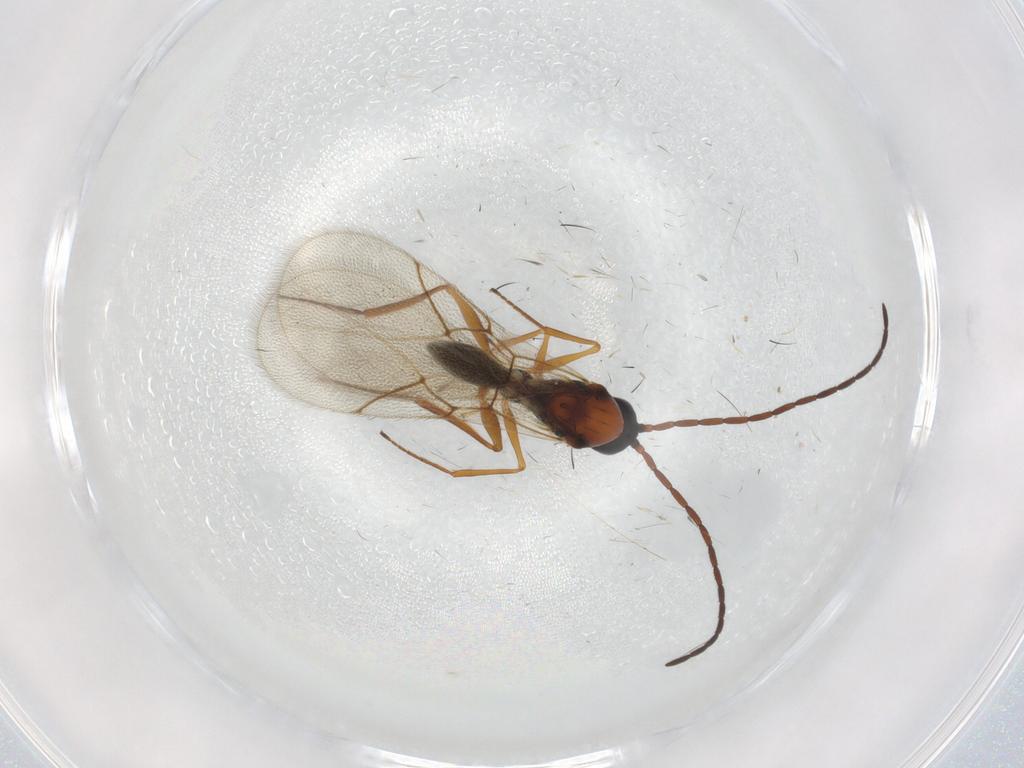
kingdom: Animalia
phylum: Arthropoda
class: Insecta
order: Hymenoptera
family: Figitidae
